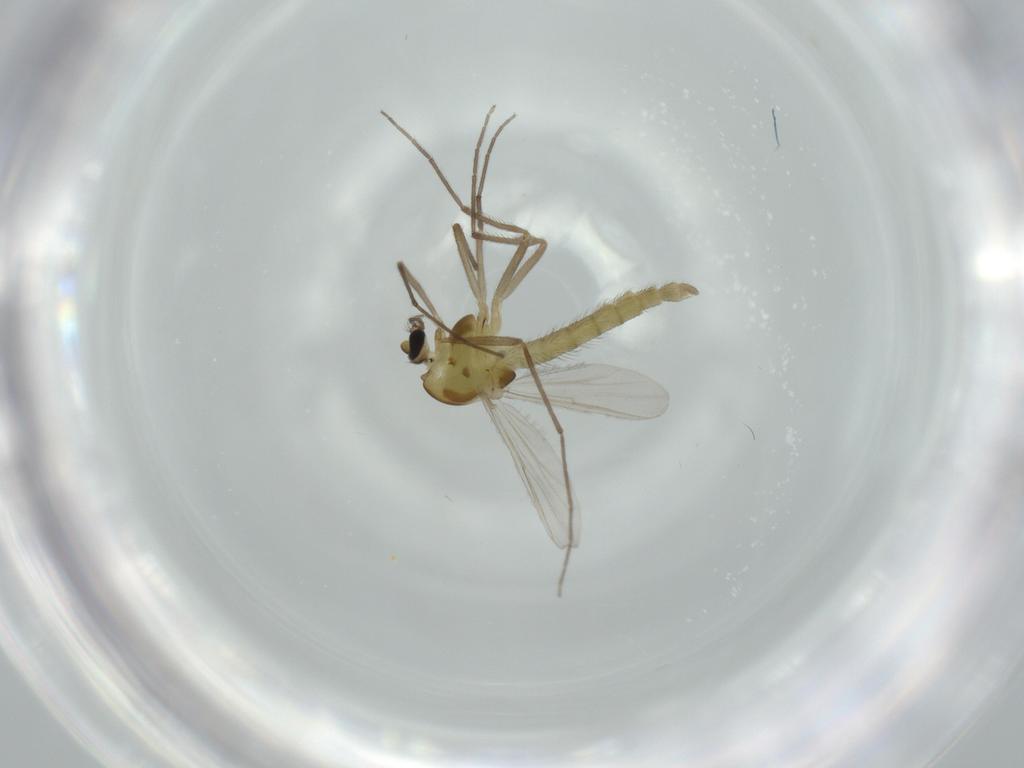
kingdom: Animalia
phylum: Arthropoda
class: Insecta
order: Diptera
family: Chironomidae
